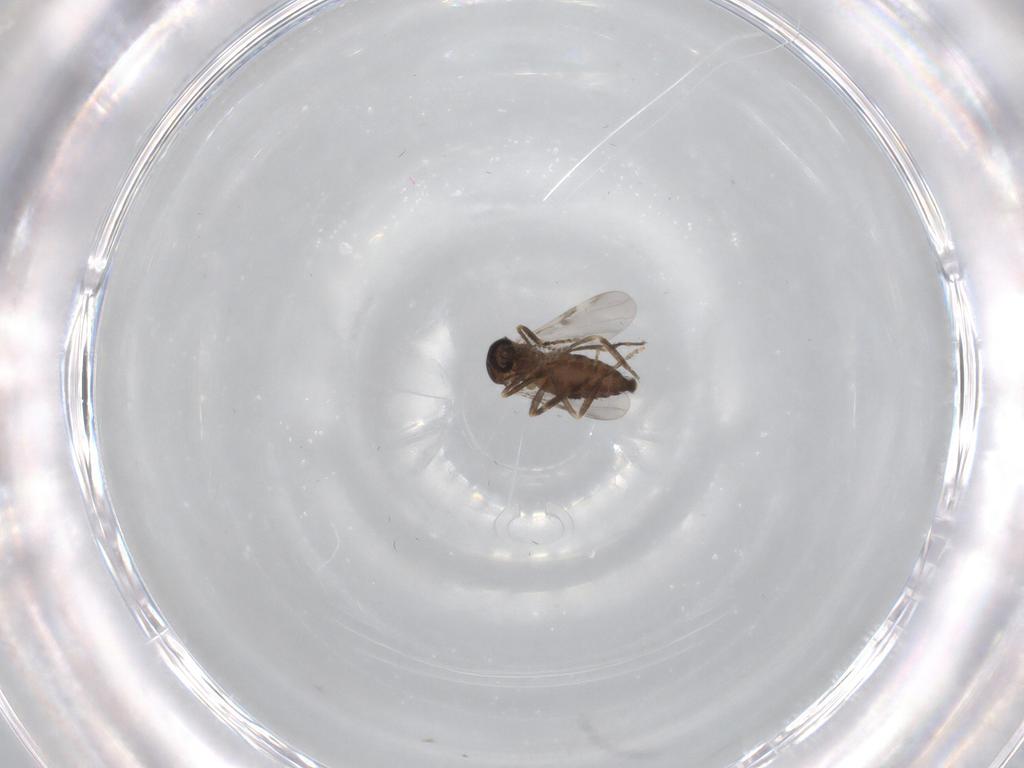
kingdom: Animalia
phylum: Arthropoda
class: Insecta
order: Diptera
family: Ceratopogonidae
